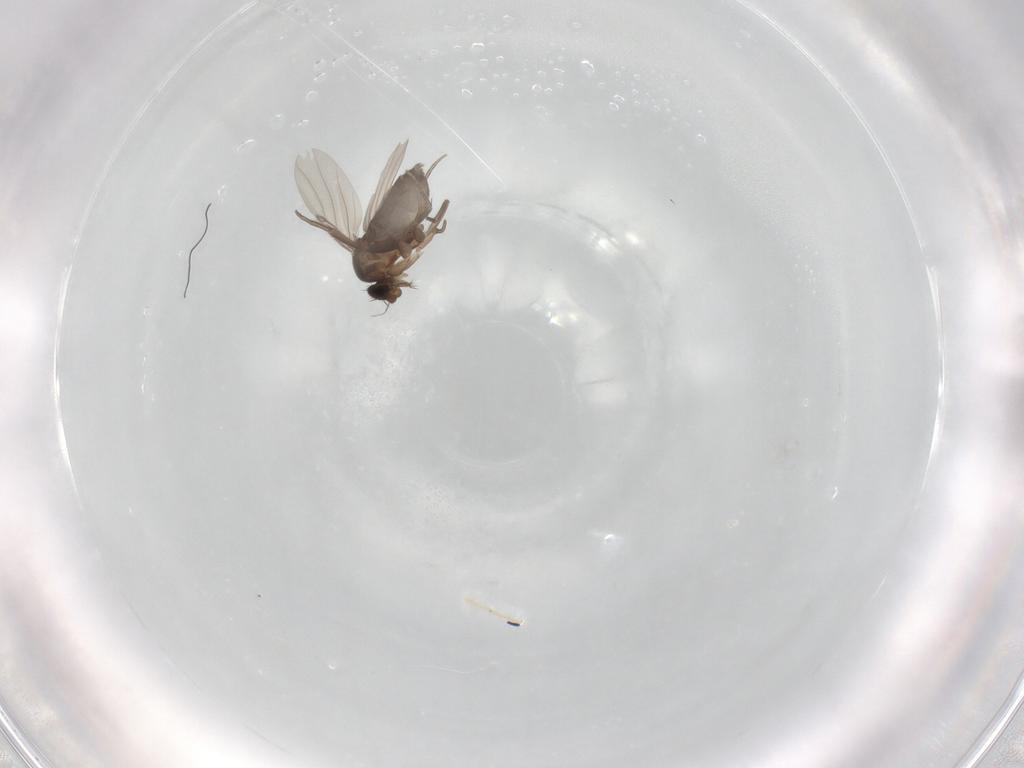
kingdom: Animalia
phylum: Arthropoda
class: Insecta
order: Diptera
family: Phoridae
